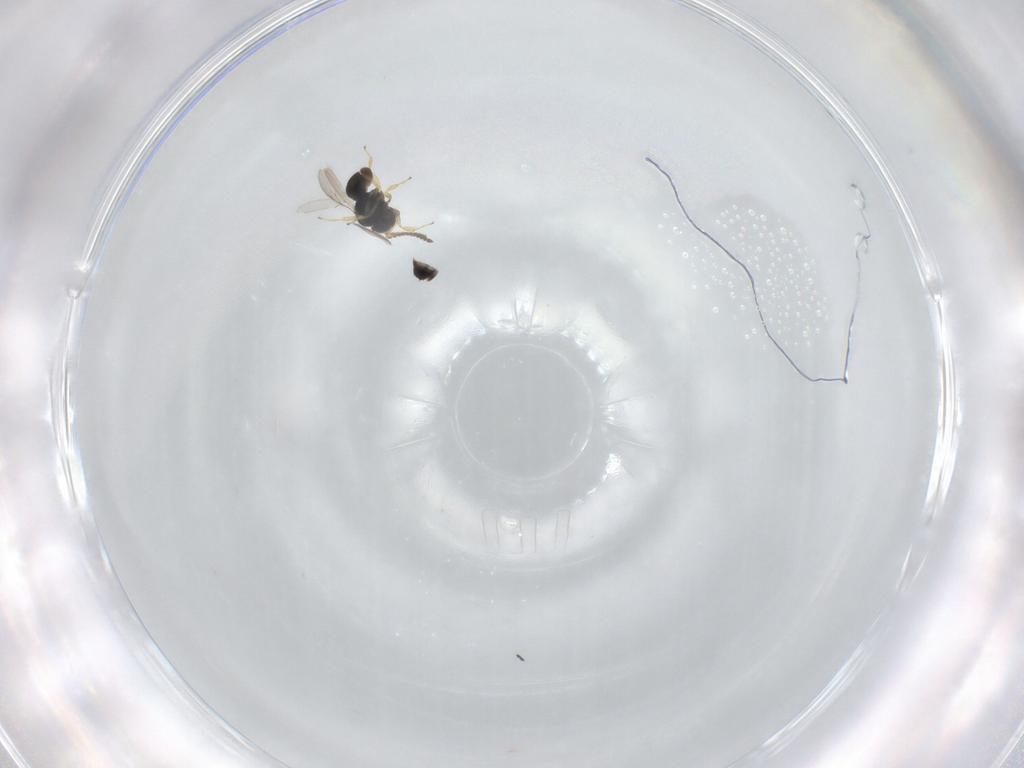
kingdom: Animalia
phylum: Arthropoda
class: Insecta
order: Hymenoptera
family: Scelionidae
